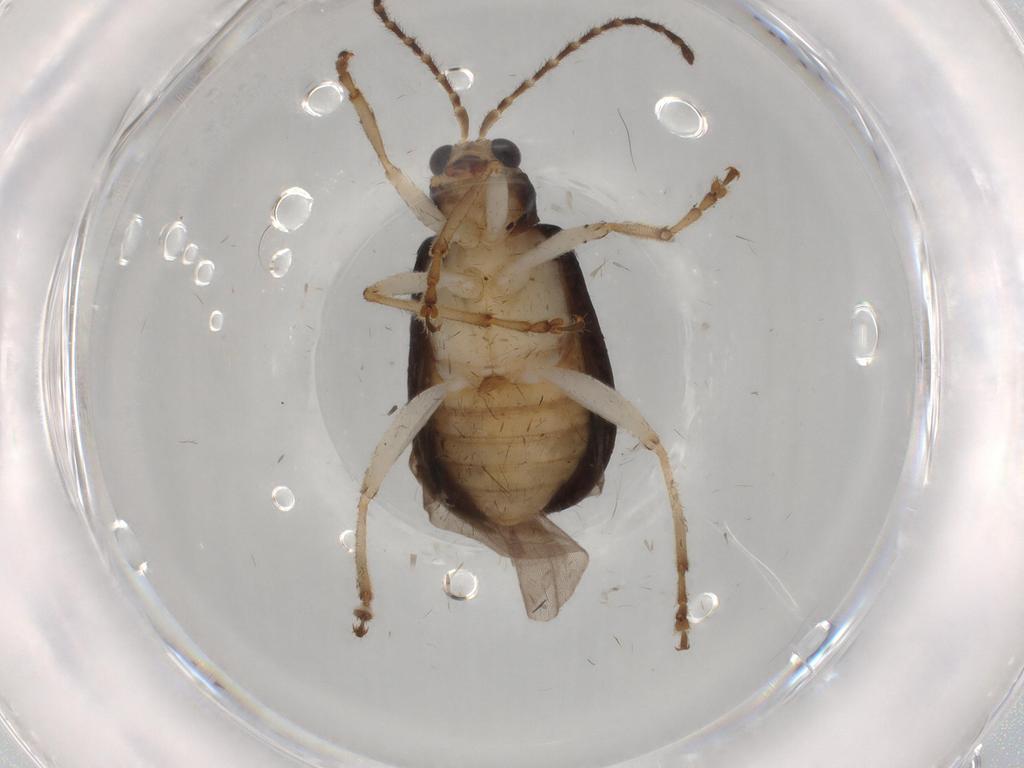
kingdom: Animalia
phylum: Arthropoda
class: Insecta
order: Coleoptera
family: Chrysomelidae
